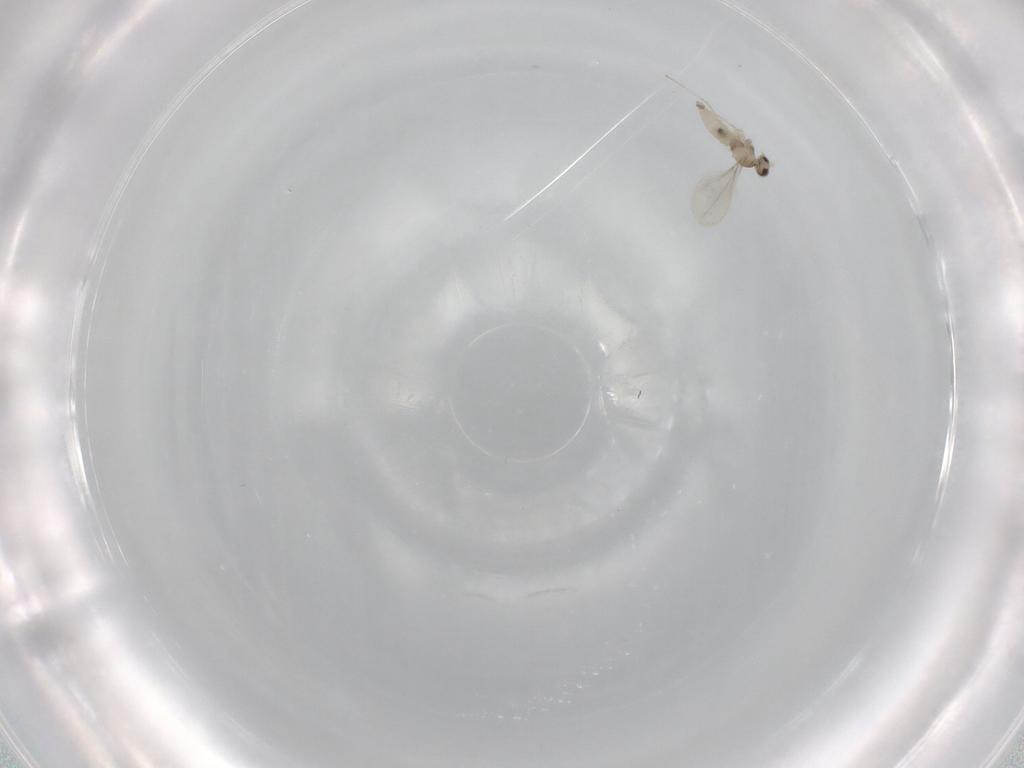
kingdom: Animalia
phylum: Arthropoda
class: Insecta
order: Diptera
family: Cecidomyiidae
